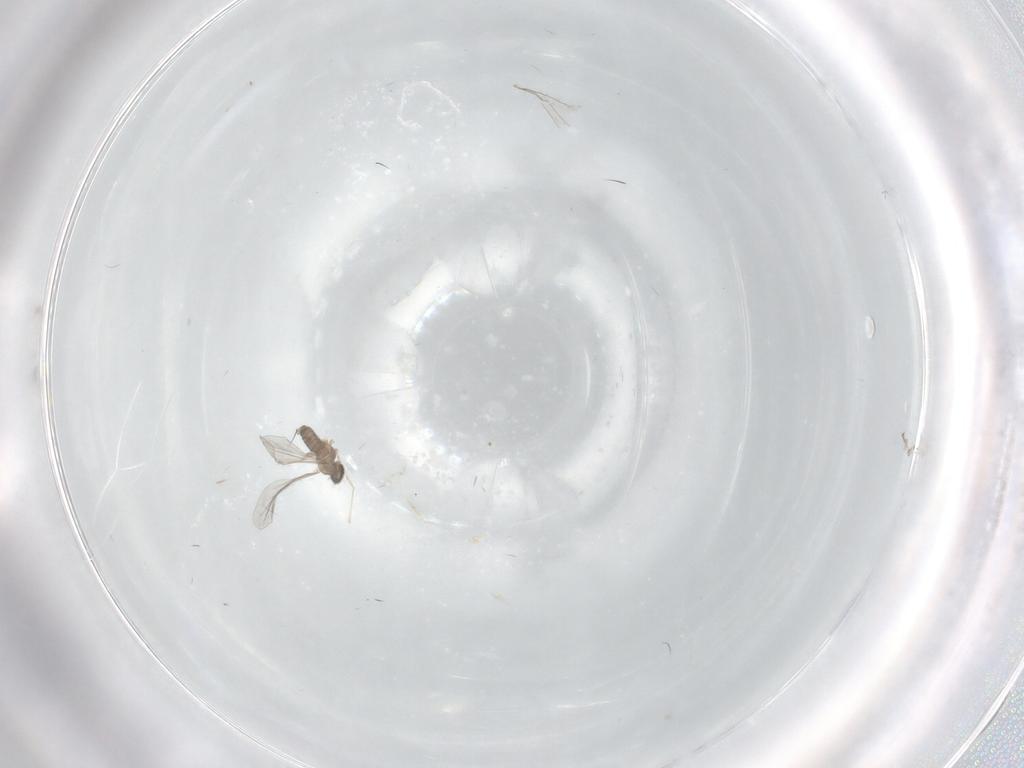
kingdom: Animalia
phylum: Arthropoda
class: Insecta
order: Diptera
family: Cecidomyiidae
